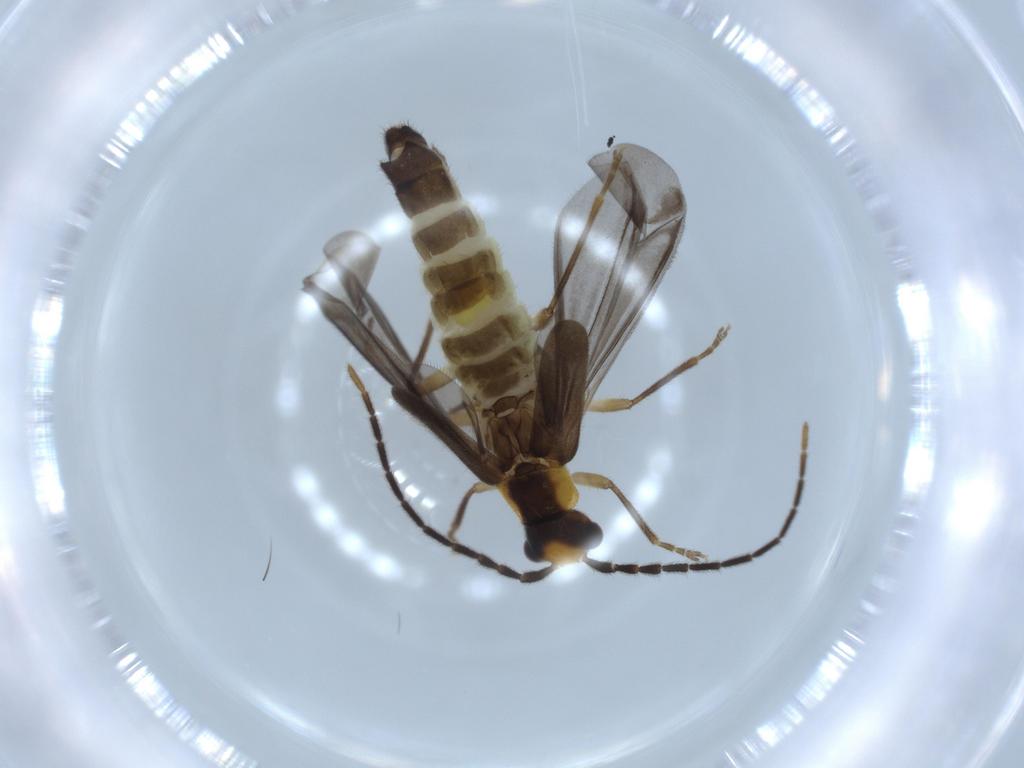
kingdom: Animalia
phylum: Arthropoda
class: Insecta
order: Coleoptera
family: Cantharidae
